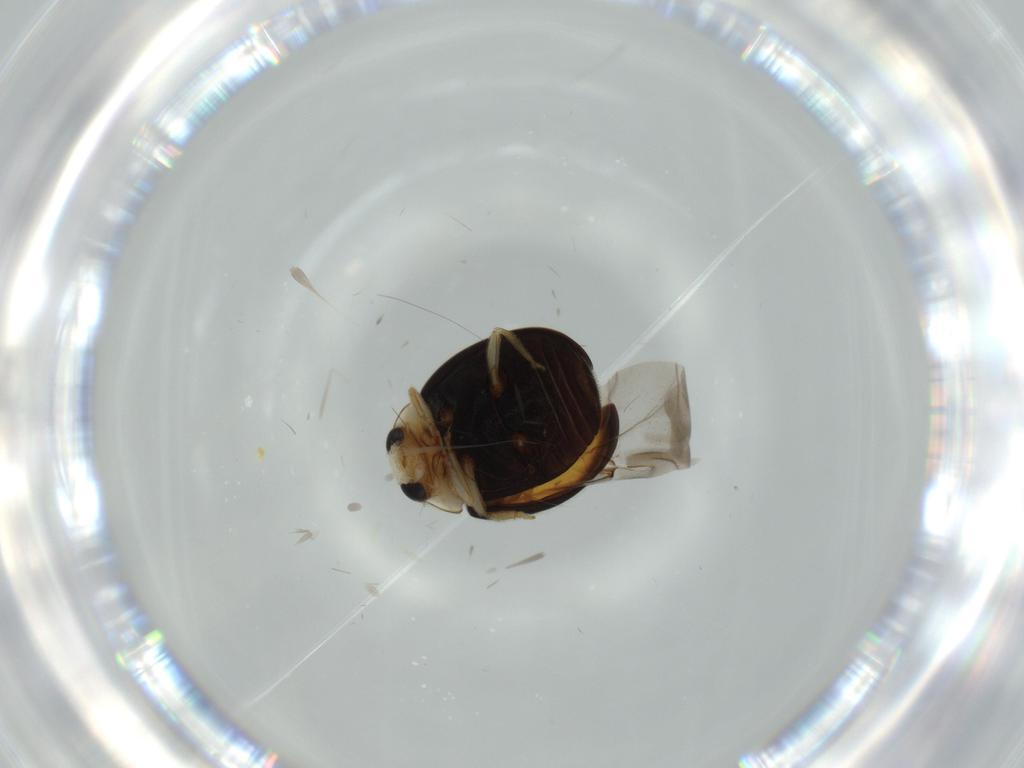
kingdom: Animalia
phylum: Arthropoda
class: Insecta
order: Coleoptera
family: Coccinellidae
